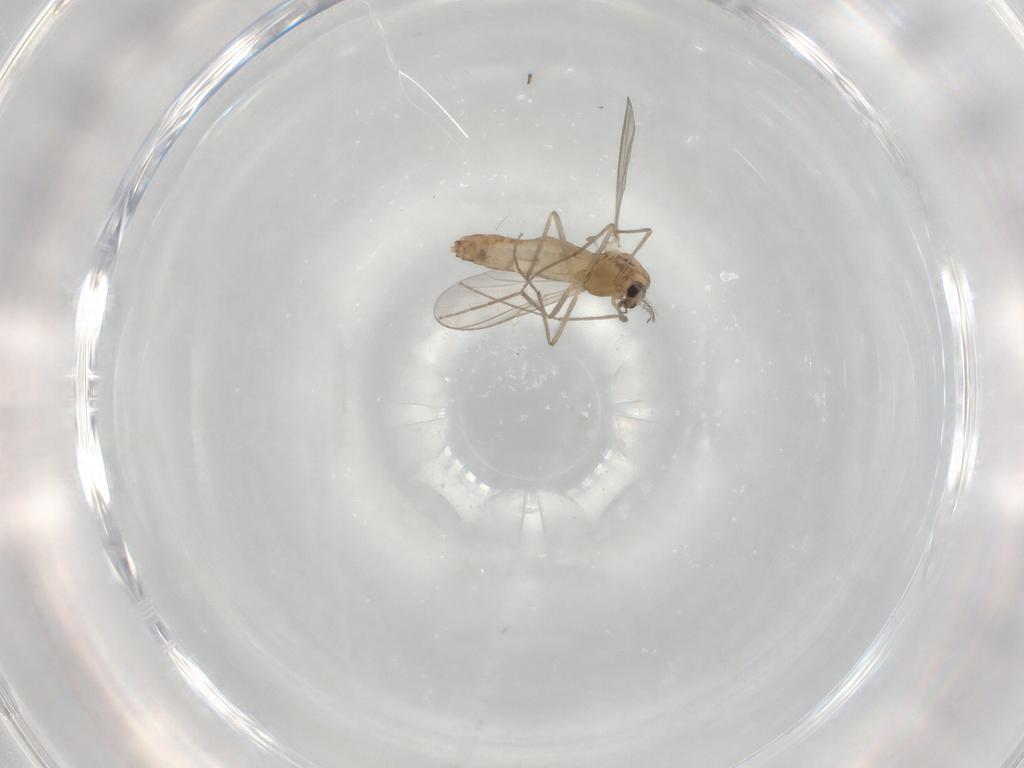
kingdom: Animalia
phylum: Arthropoda
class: Insecta
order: Diptera
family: Chironomidae
